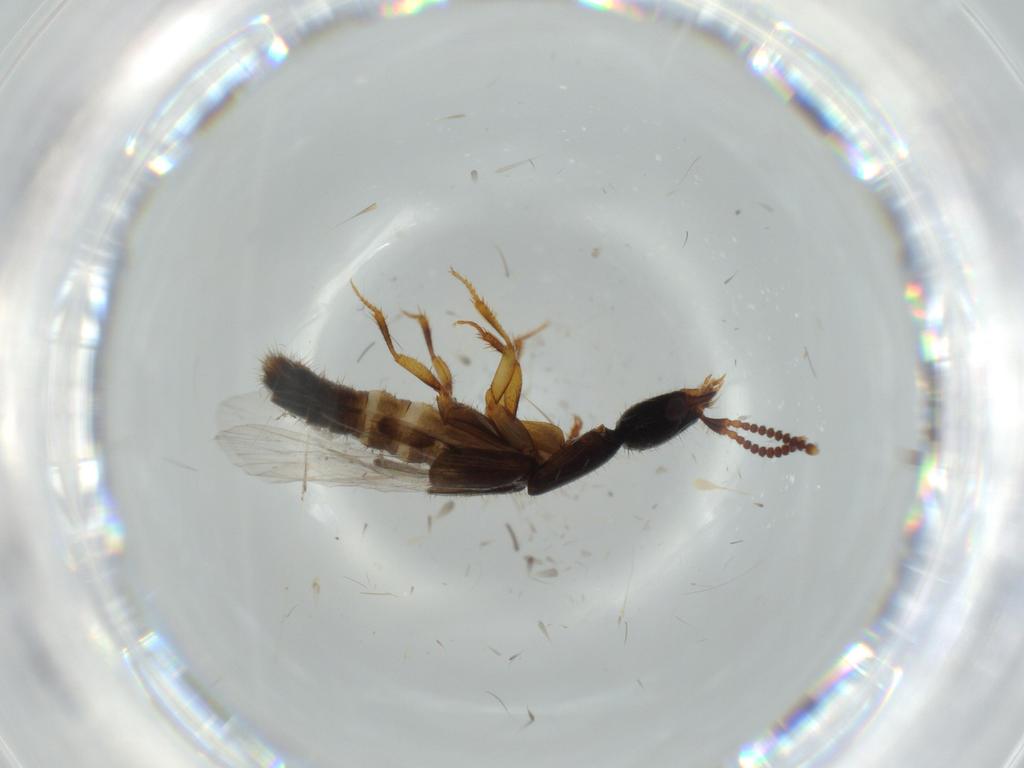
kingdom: Animalia
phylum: Arthropoda
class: Insecta
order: Coleoptera
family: Staphylinidae
